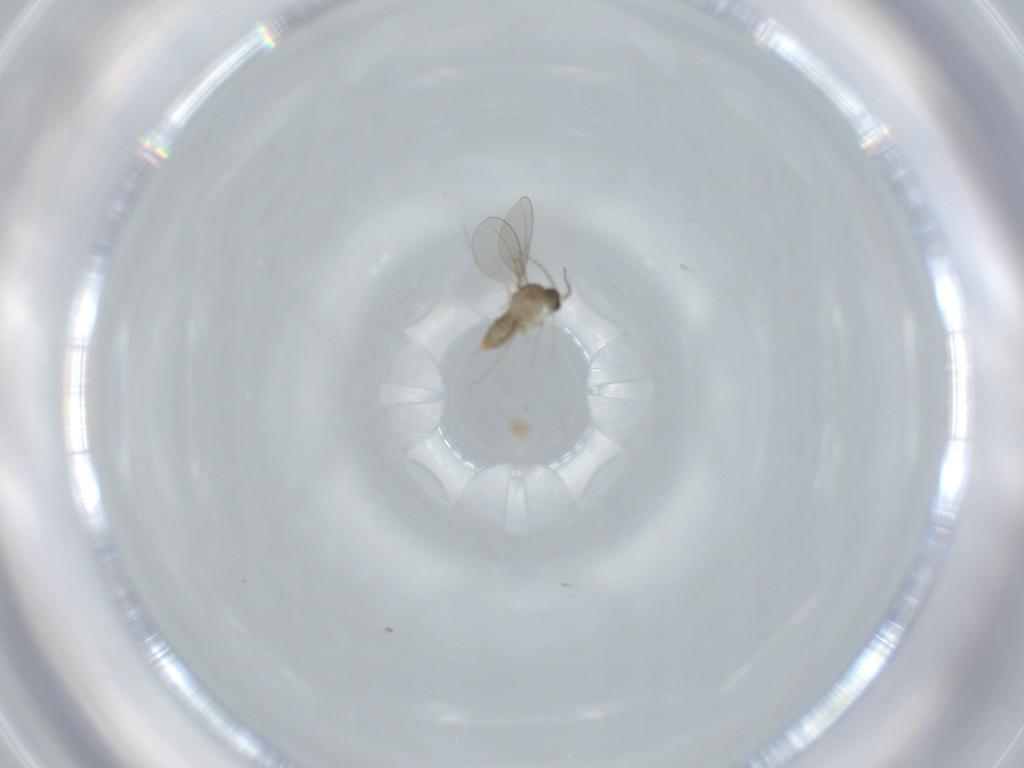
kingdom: Animalia
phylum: Arthropoda
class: Insecta
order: Diptera
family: Cecidomyiidae
